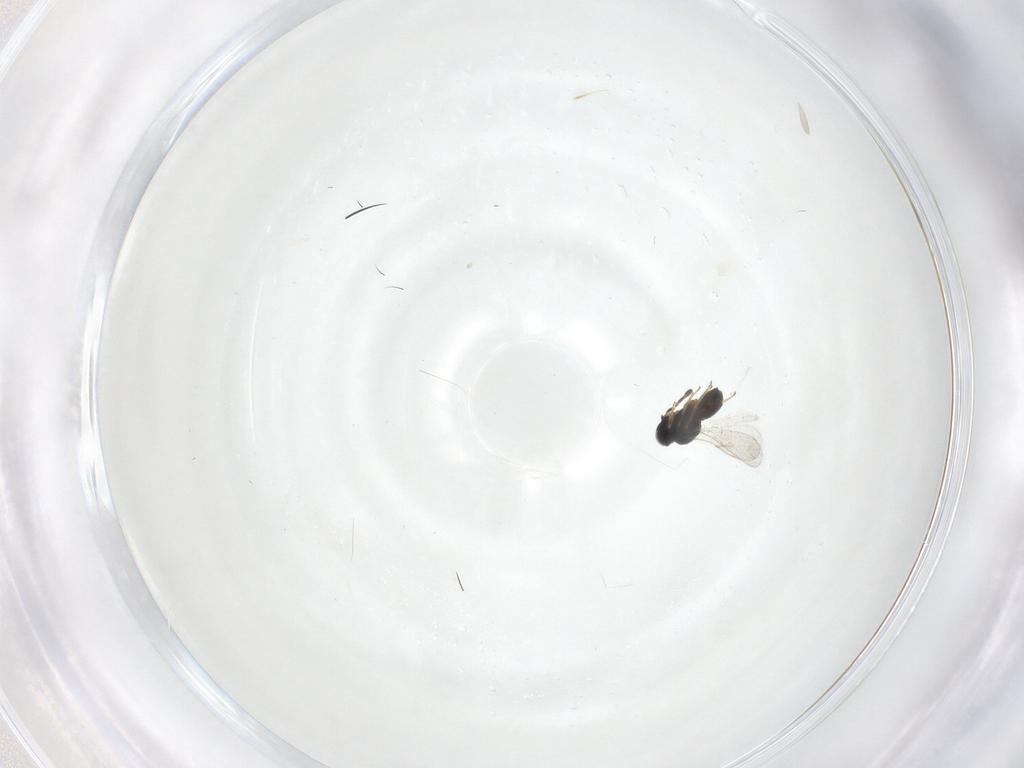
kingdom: Animalia
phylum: Arthropoda
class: Insecta
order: Hymenoptera
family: Scelionidae
